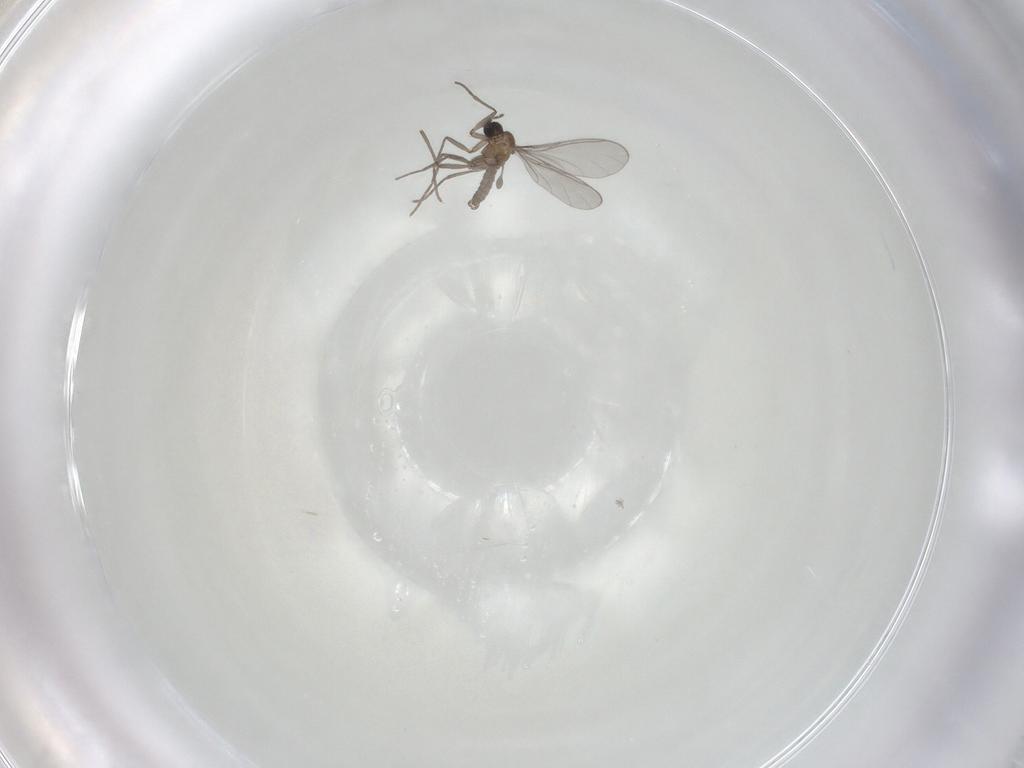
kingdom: Animalia
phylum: Arthropoda
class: Insecta
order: Diptera
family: Sciaridae
